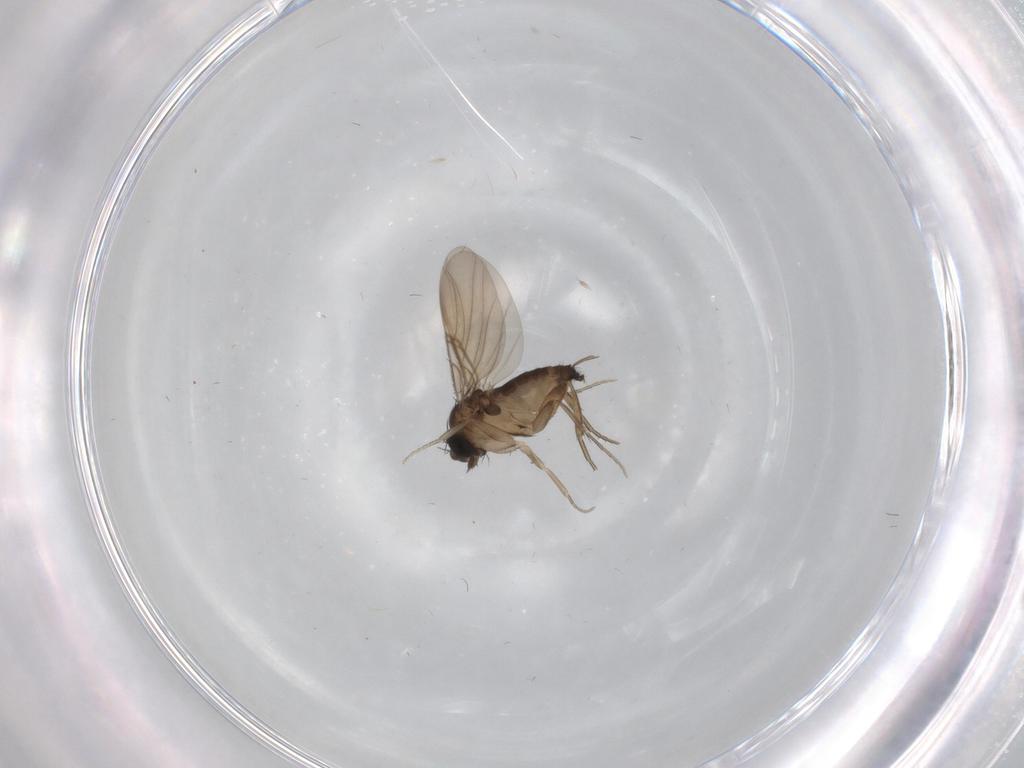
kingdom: Animalia
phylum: Arthropoda
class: Insecta
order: Diptera
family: Phoridae
